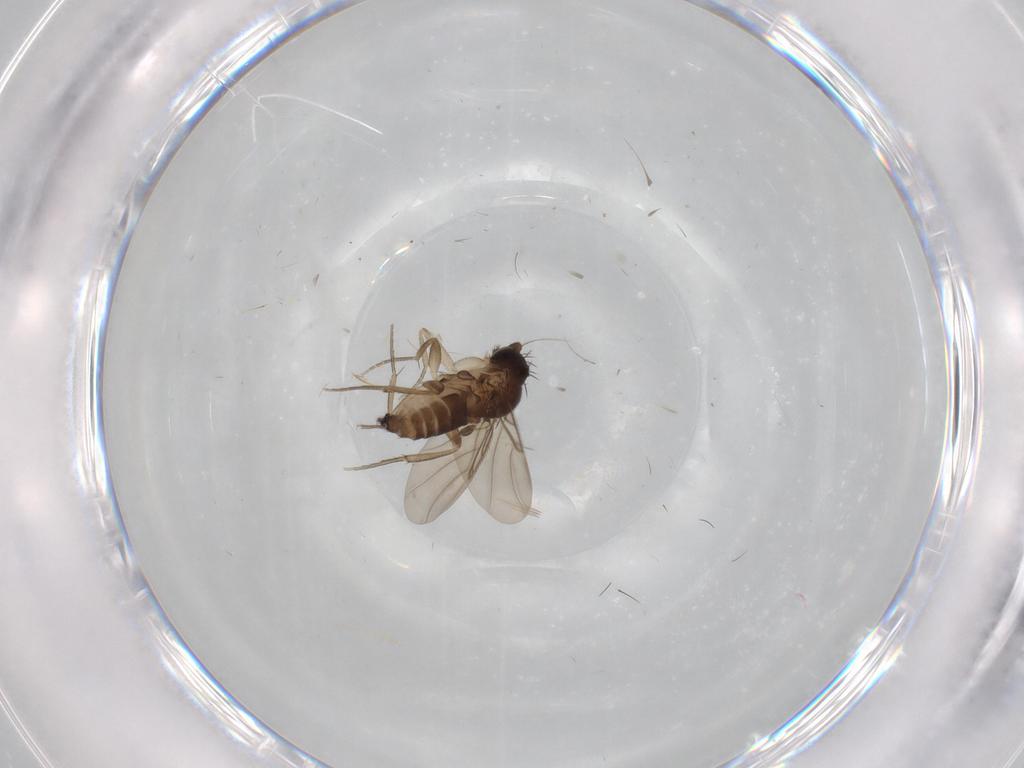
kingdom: Animalia
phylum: Arthropoda
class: Insecta
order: Diptera
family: Phoridae
